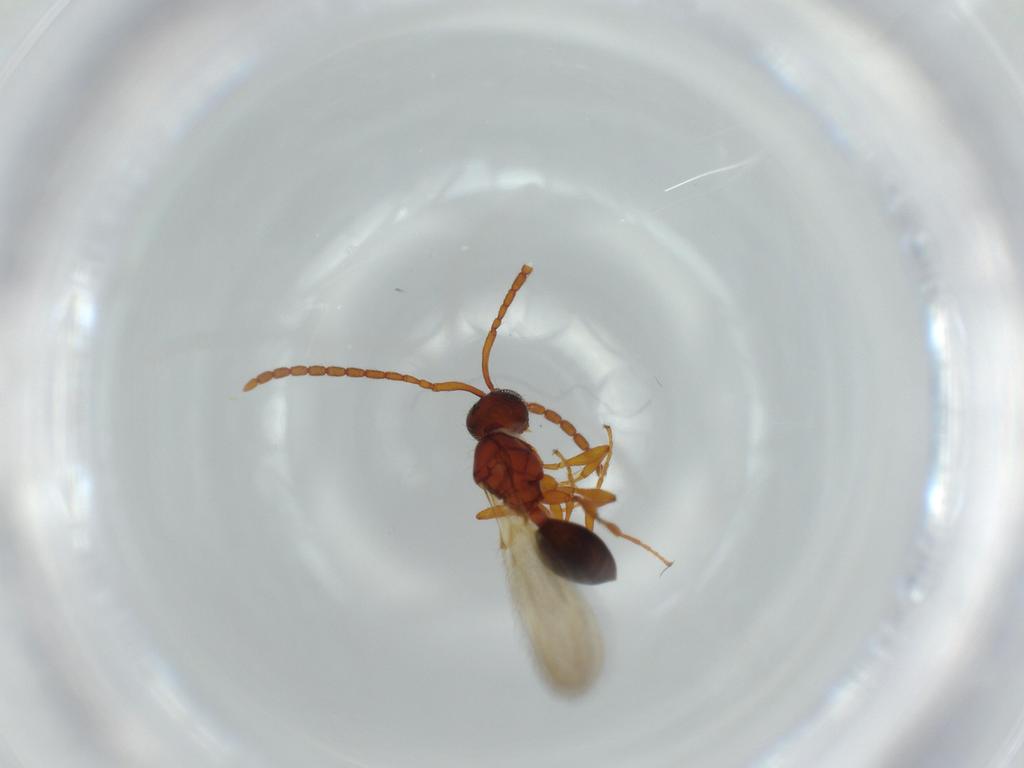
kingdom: Animalia
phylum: Arthropoda
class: Insecta
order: Hymenoptera
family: Diapriidae
